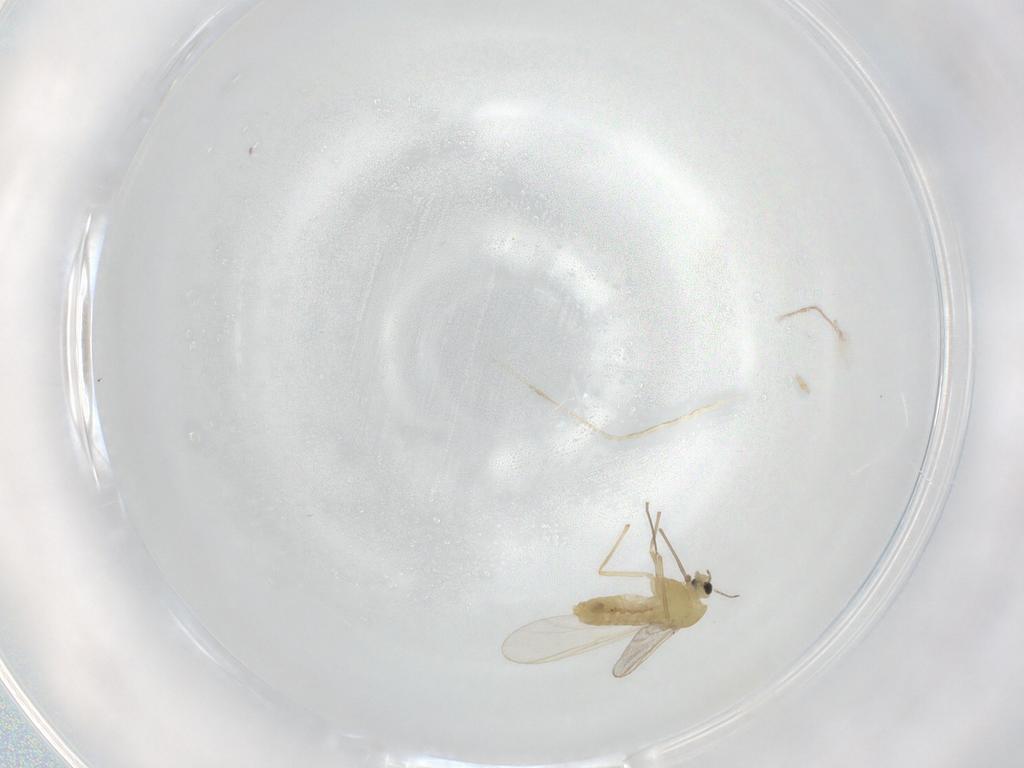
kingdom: Animalia
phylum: Arthropoda
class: Insecta
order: Diptera
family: Chironomidae
